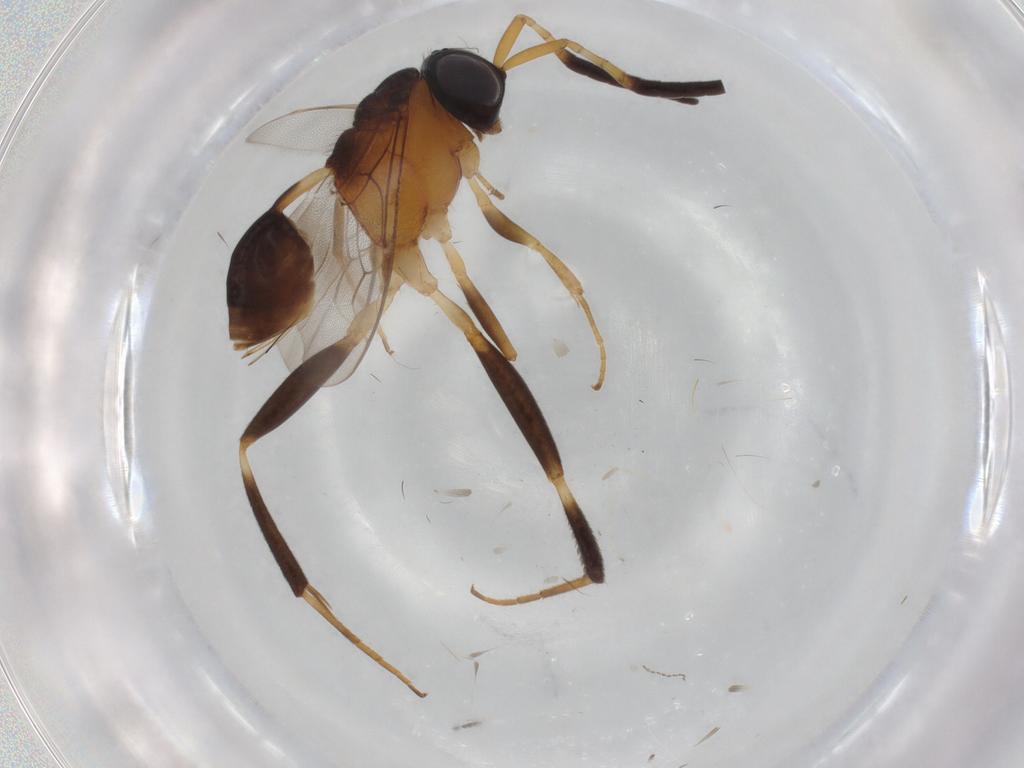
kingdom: Animalia
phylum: Arthropoda
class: Insecta
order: Hymenoptera
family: Evaniidae
